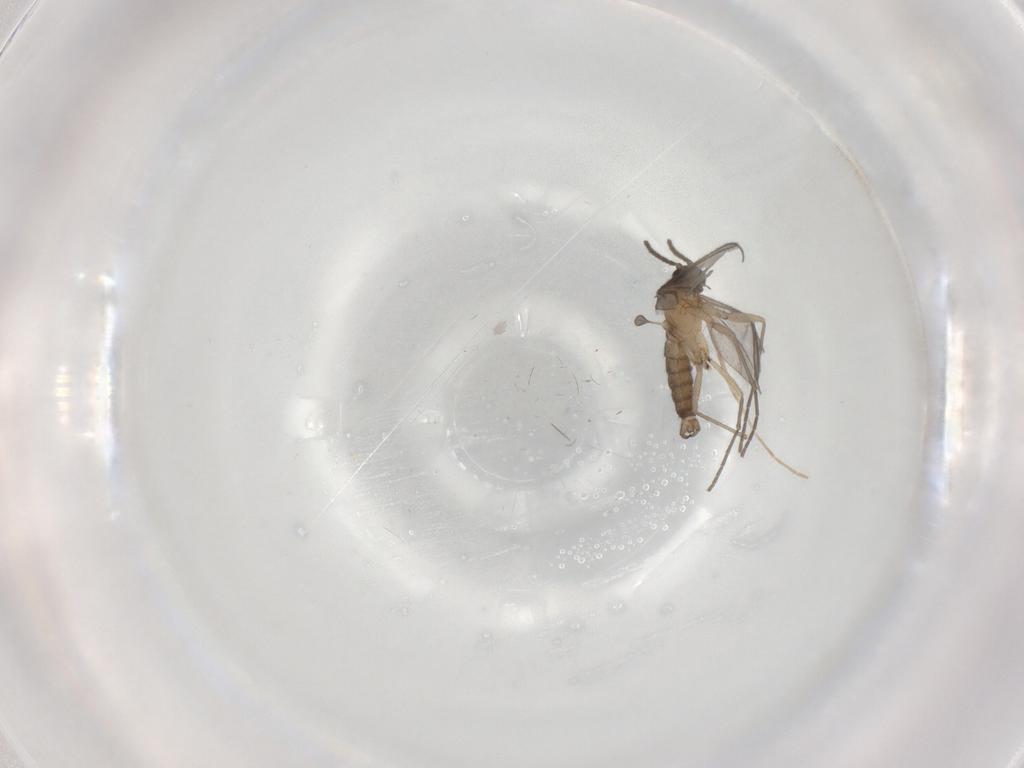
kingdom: Animalia
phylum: Arthropoda
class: Insecta
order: Diptera
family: Sciaridae
